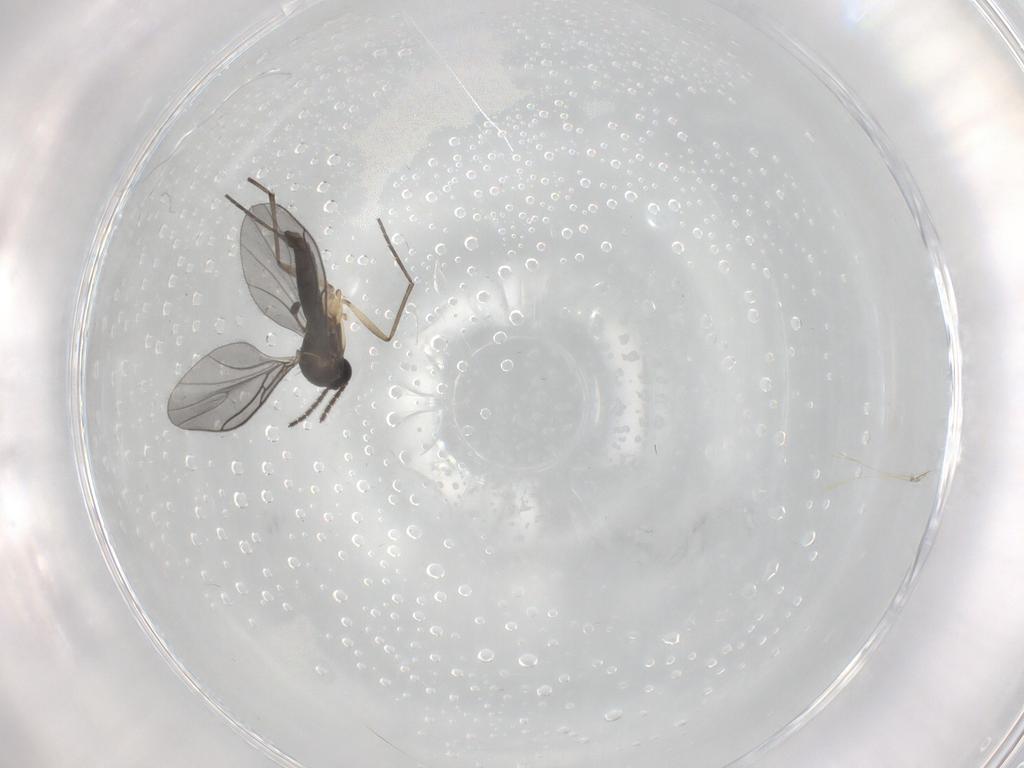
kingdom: Animalia
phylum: Arthropoda
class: Insecta
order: Diptera
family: Sciaridae
